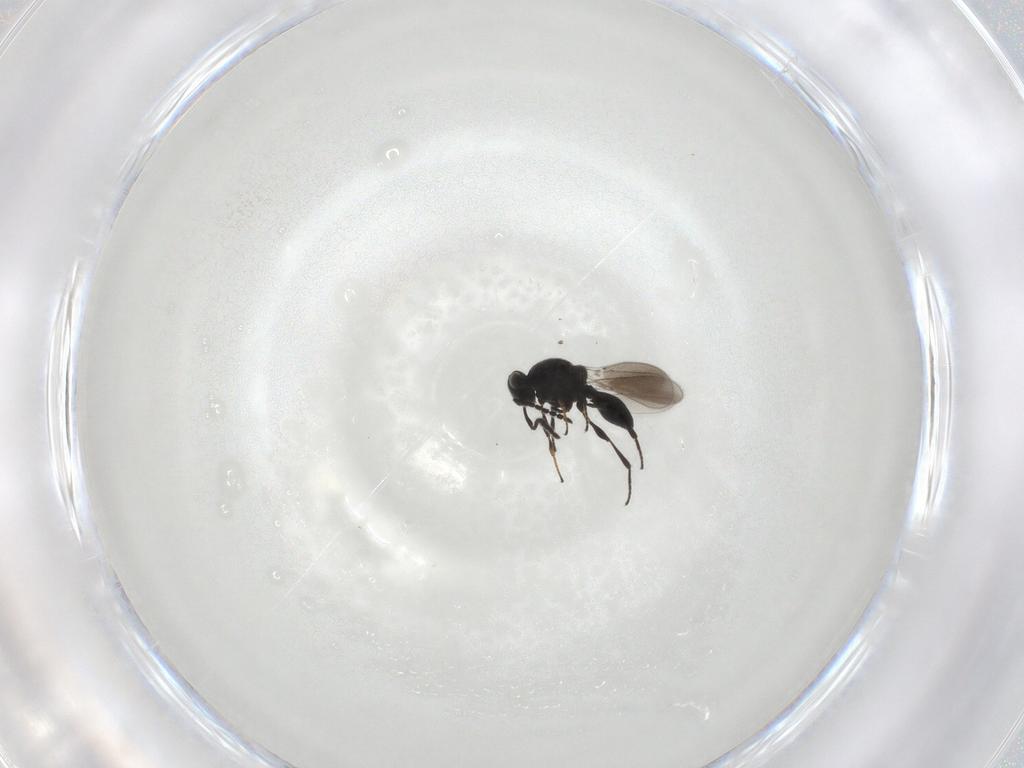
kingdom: Animalia
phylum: Arthropoda
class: Insecta
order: Hymenoptera
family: Platygastridae
